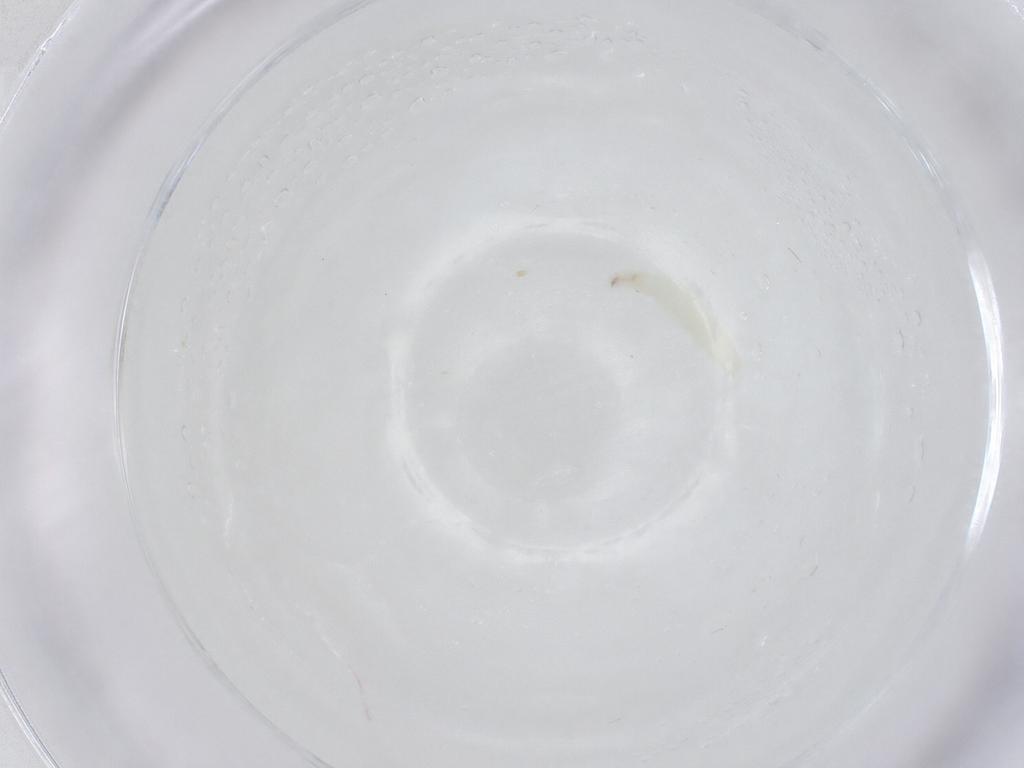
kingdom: Animalia
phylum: Arthropoda
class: Insecta
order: Diptera
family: Sarcophagidae
